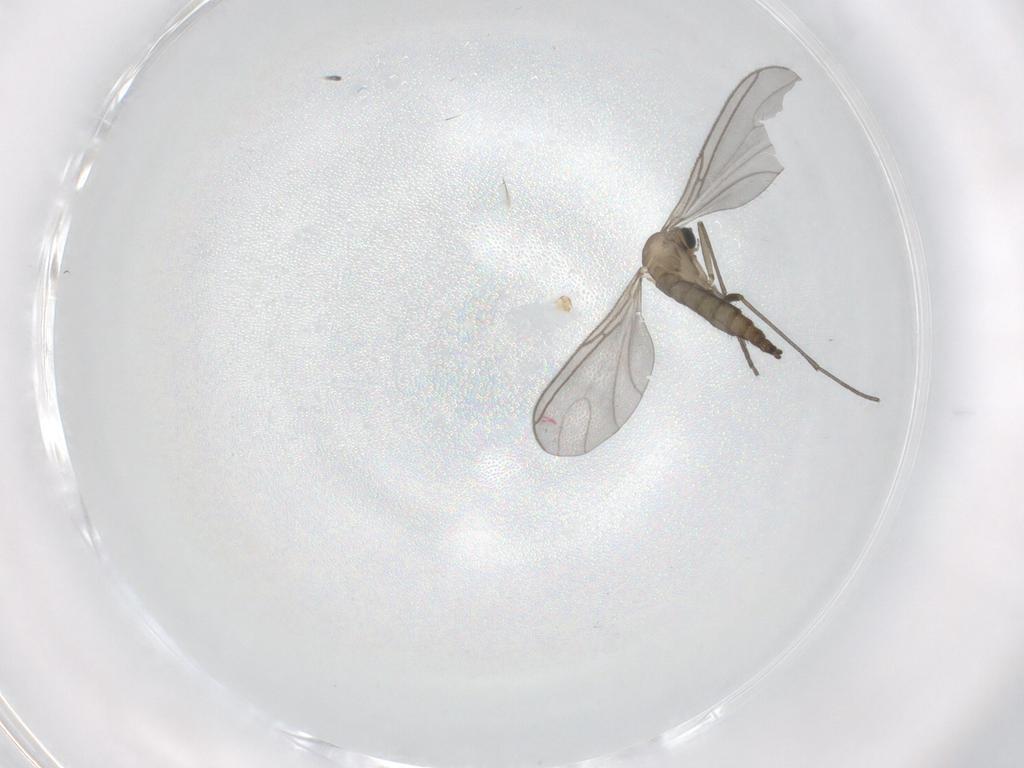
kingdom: Animalia
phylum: Arthropoda
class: Insecta
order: Diptera
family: Sciaridae
